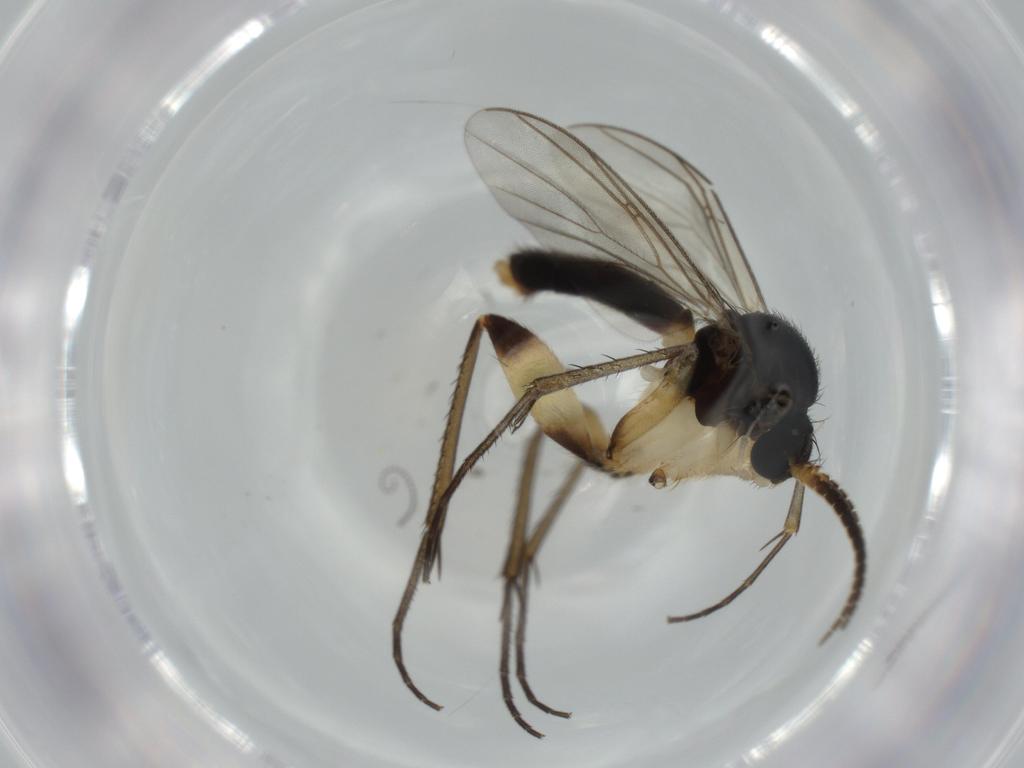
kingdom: Animalia
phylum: Arthropoda
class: Insecta
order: Diptera
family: Mycetophilidae
